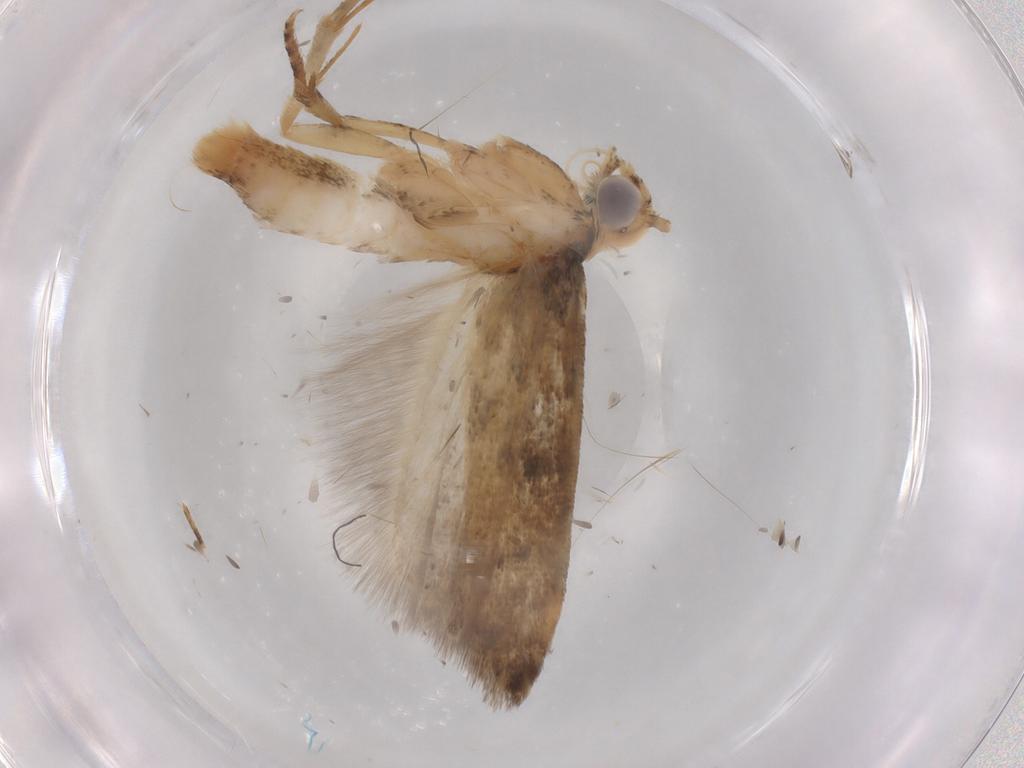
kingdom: Animalia
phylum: Arthropoda
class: Insecta
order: Lepidoptera
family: Gelechiidae
